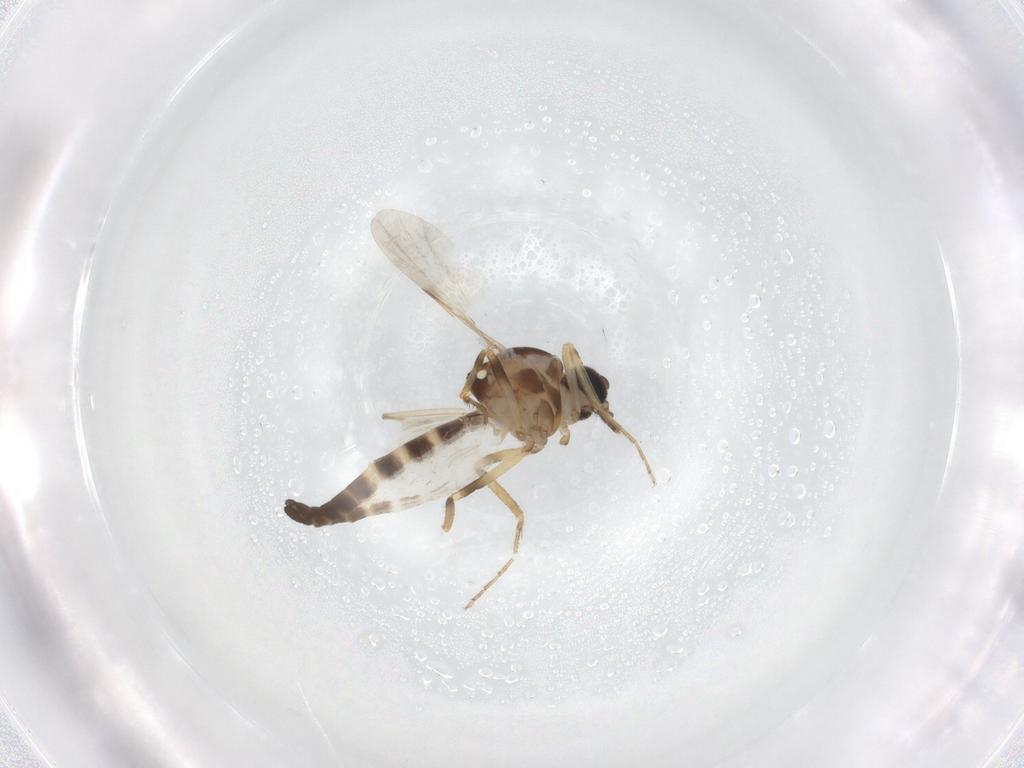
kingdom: Animalia
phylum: Arthropoda
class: Insecta
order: Diptera
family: Ceratopogonidae
